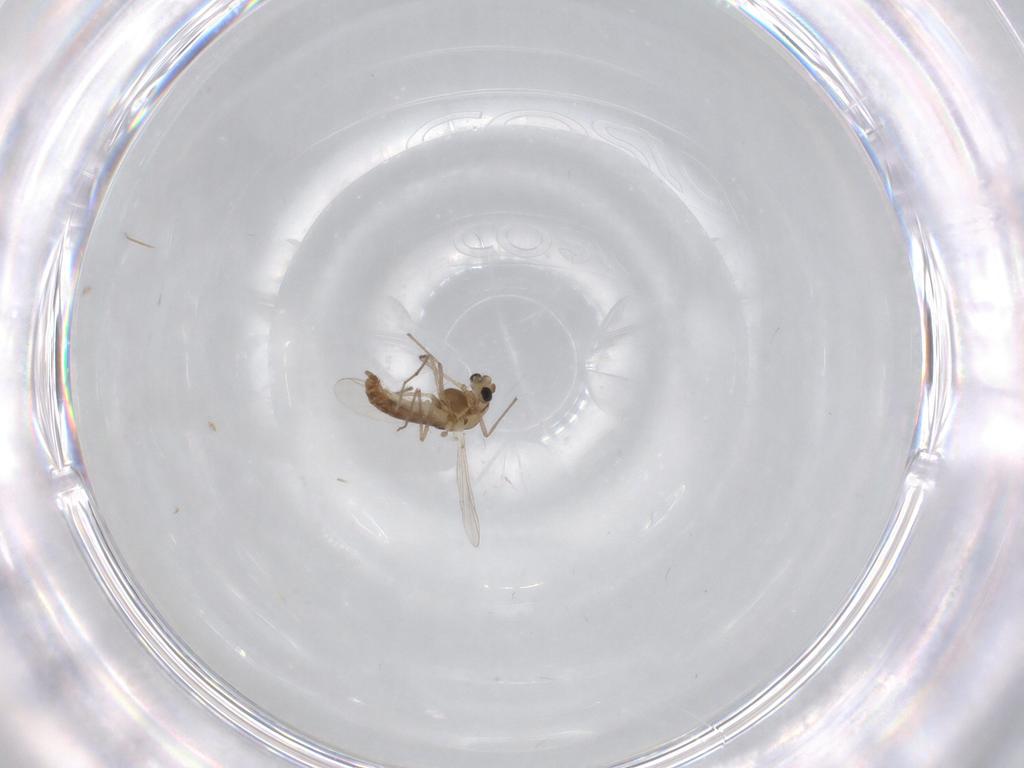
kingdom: Animalia
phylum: Arthropoda
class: Insecta
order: Diptera
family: Chironomidae
